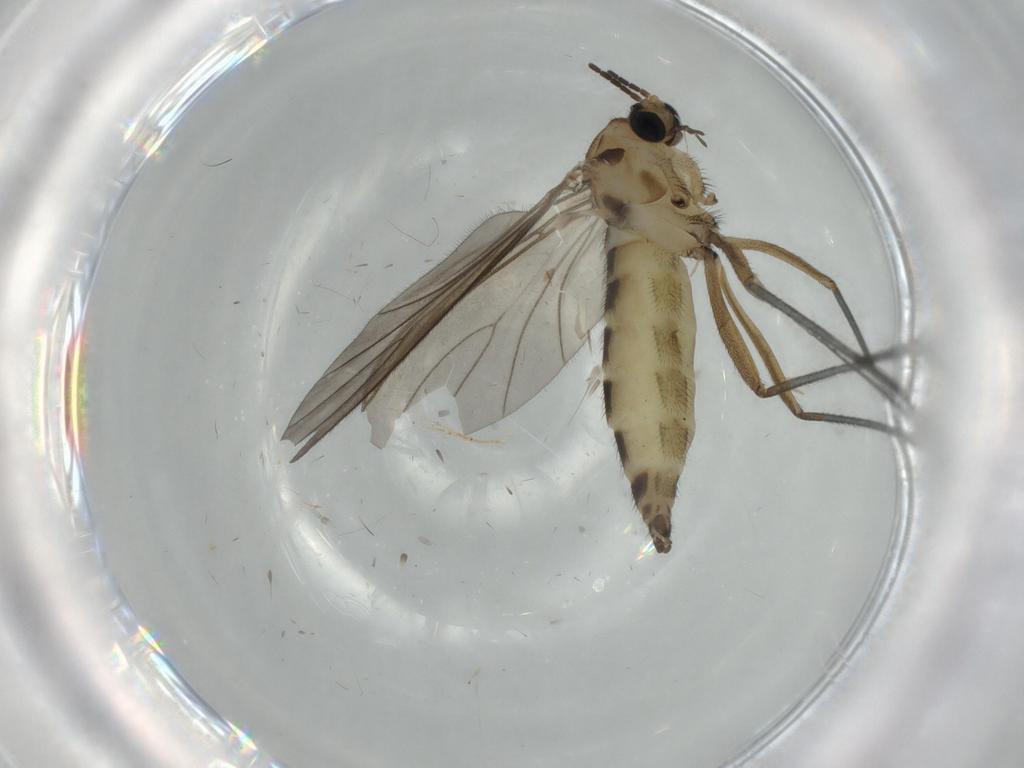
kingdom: Animalia
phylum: Arthropoda
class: Insecta
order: Diptera
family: Sciaridae
